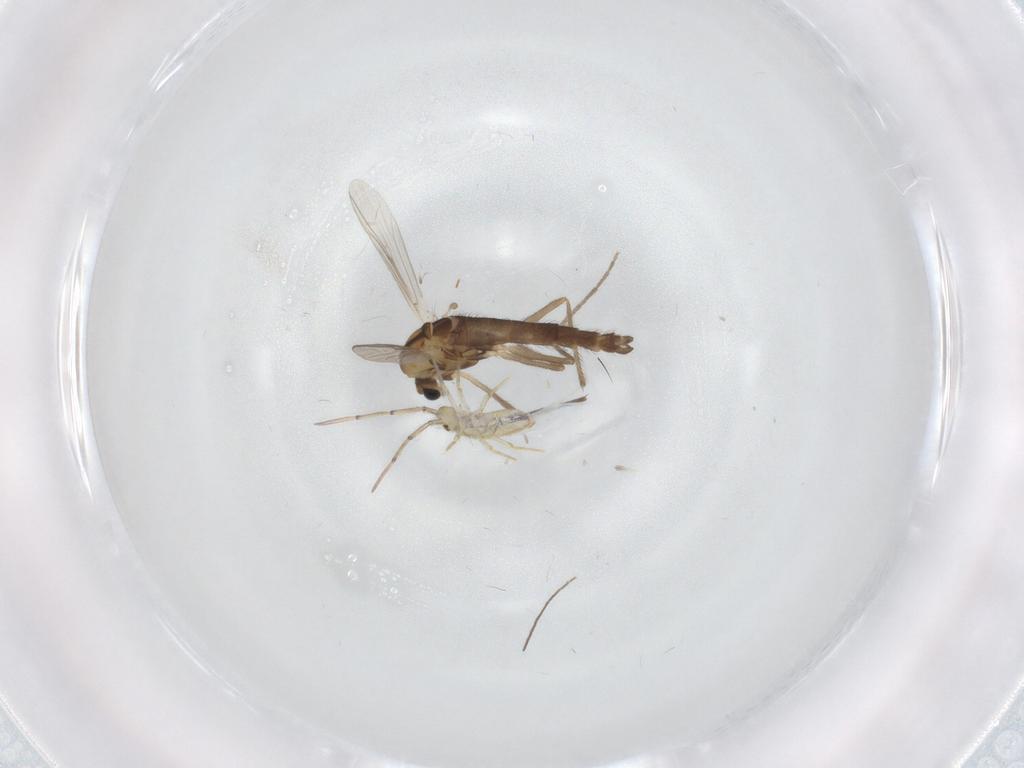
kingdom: Animalia
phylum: Arthropoda
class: Insecta
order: Diptera
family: Chironomidae
